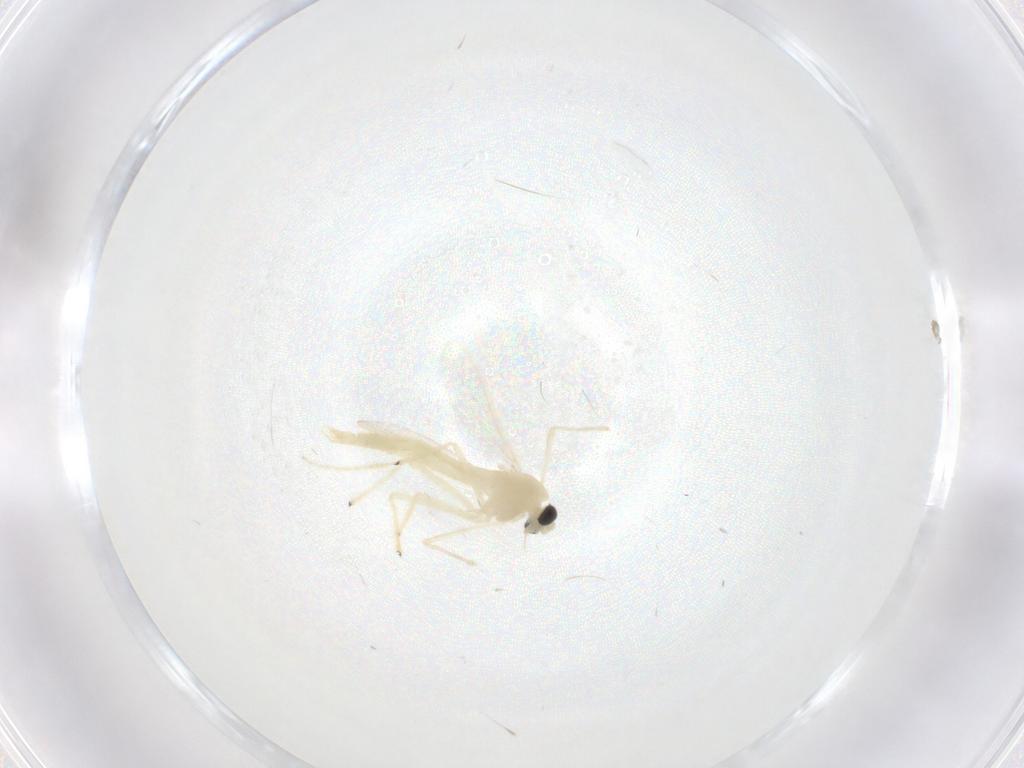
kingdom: Animalia
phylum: Arthropoda
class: Insecta
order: Diptera
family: Chironomidae
